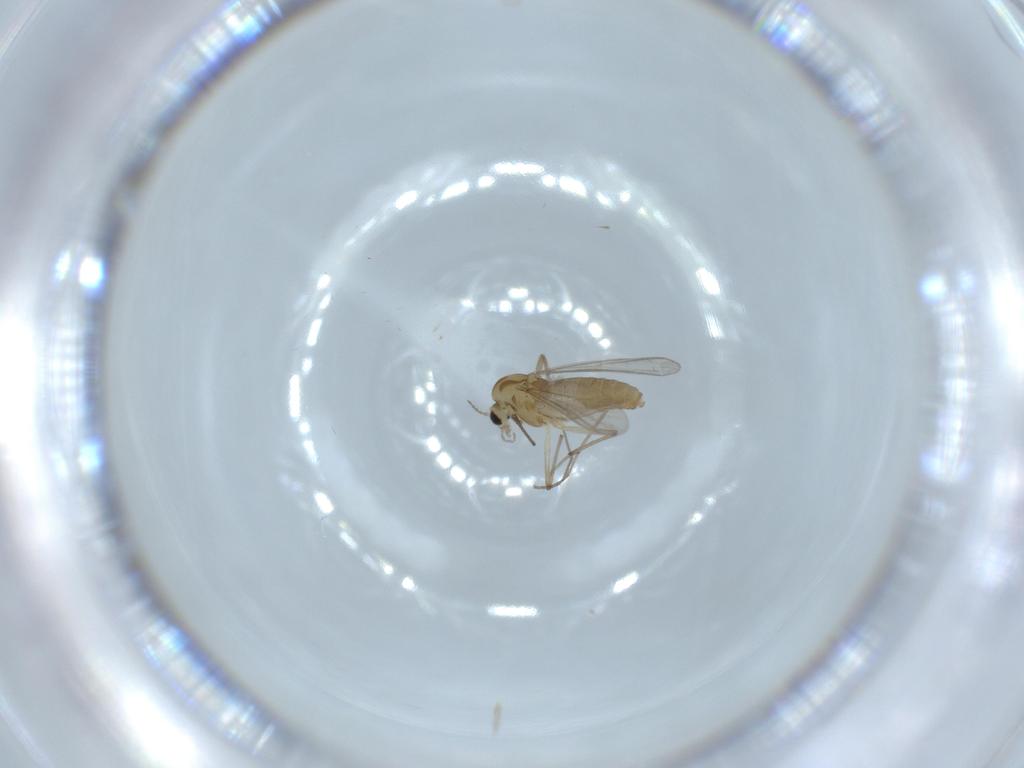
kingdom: Animalia
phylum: Arthropoda
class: Insecta
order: Diptera
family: Chironomidae
